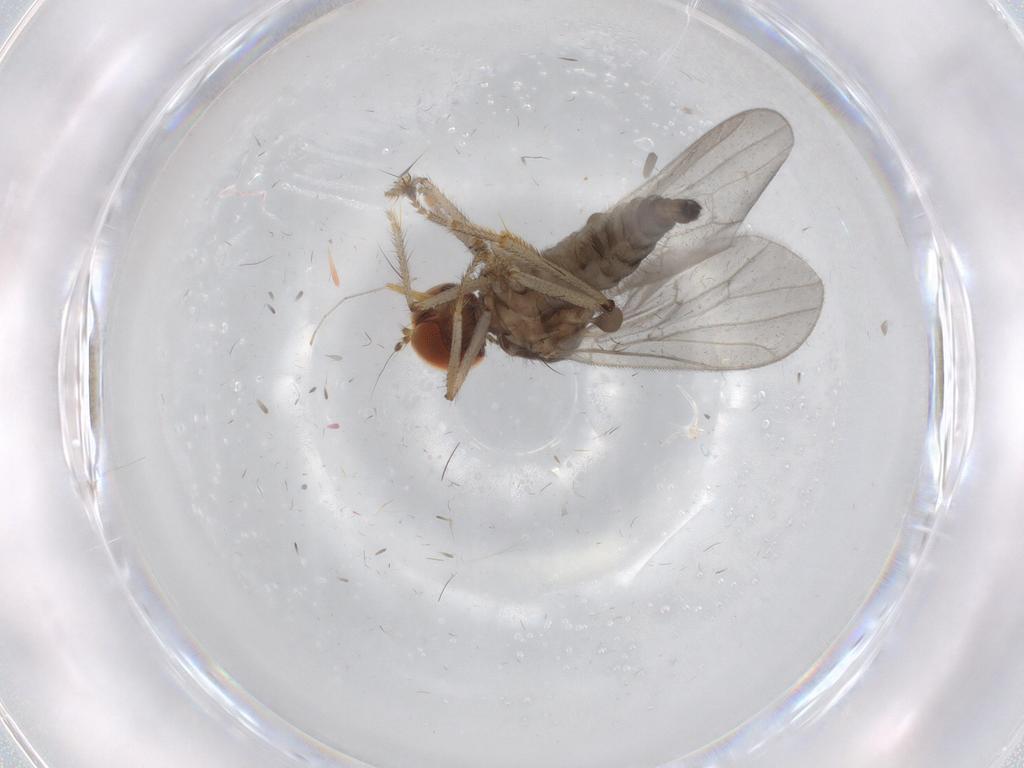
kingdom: Animalia
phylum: Arthropoda
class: Insecta
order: Diptera
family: Hybotidae
